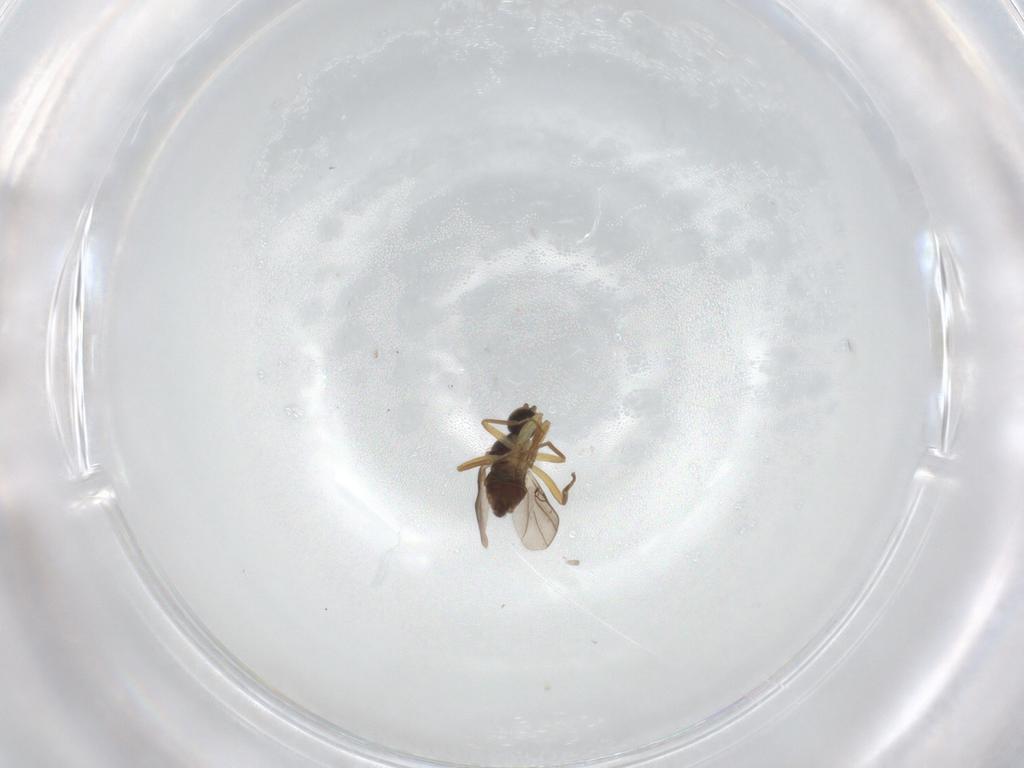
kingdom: Animalia
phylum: Arthropoda
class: Insecta
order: Diptera
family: Hybotidae
